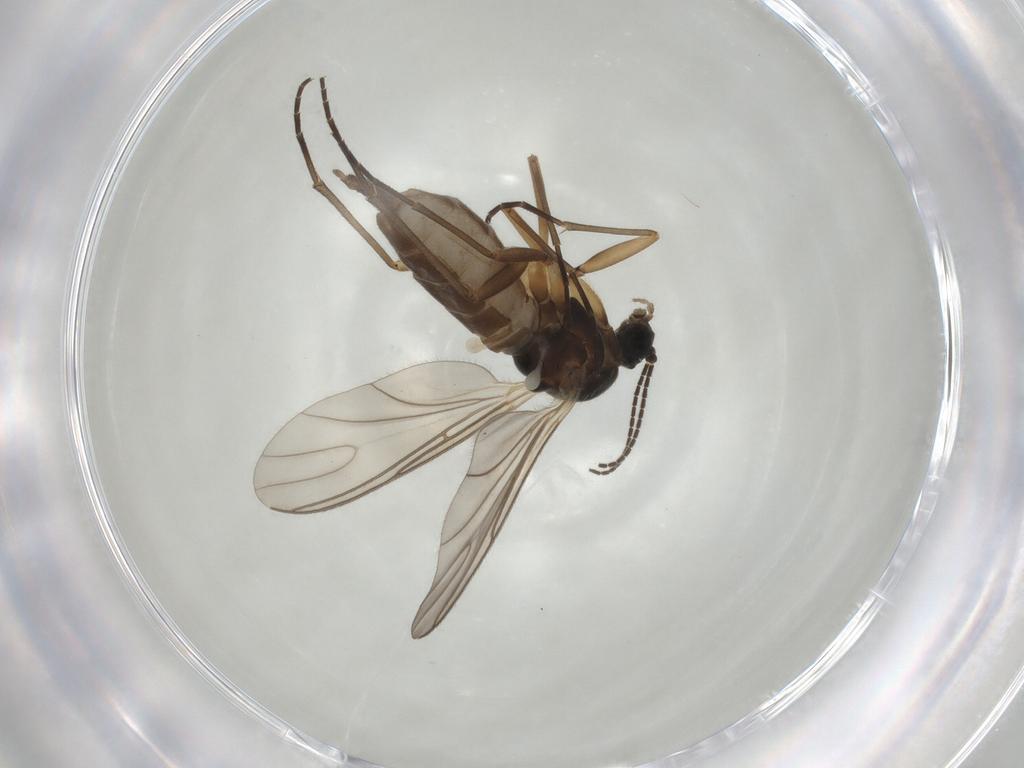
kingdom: Animalia
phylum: Arthropoda
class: Insecta
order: Diptera
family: Sciaridae
